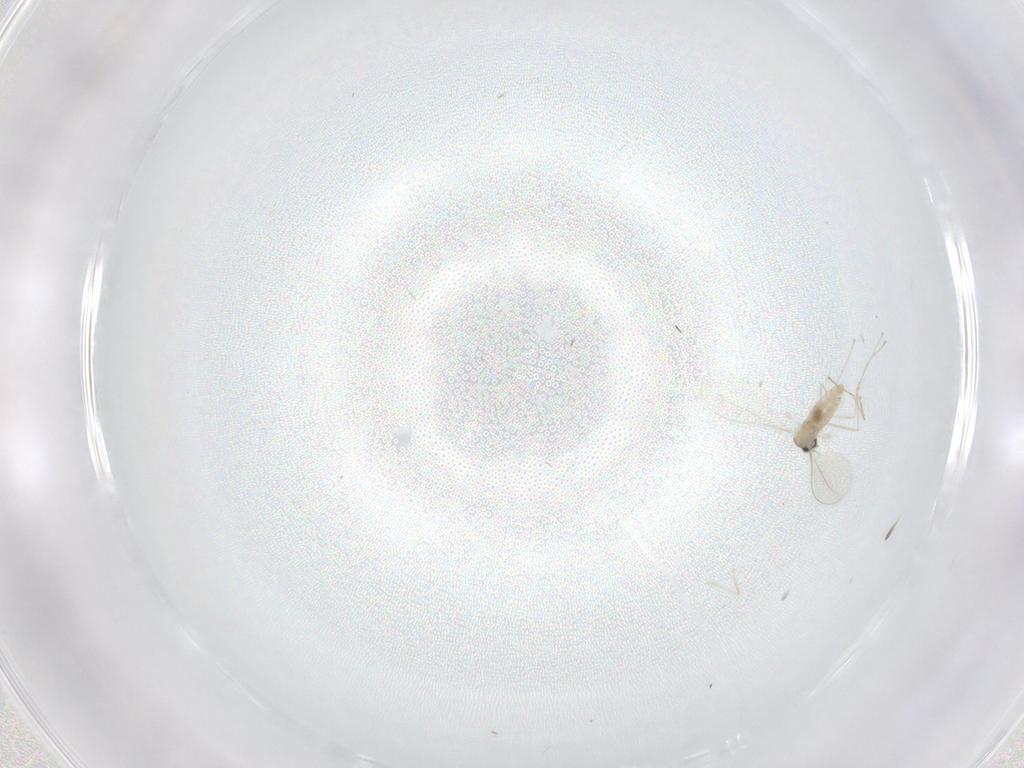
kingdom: Animalia
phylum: Arthropoda
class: Insecta
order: Diptera
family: Cecidomyiidae
